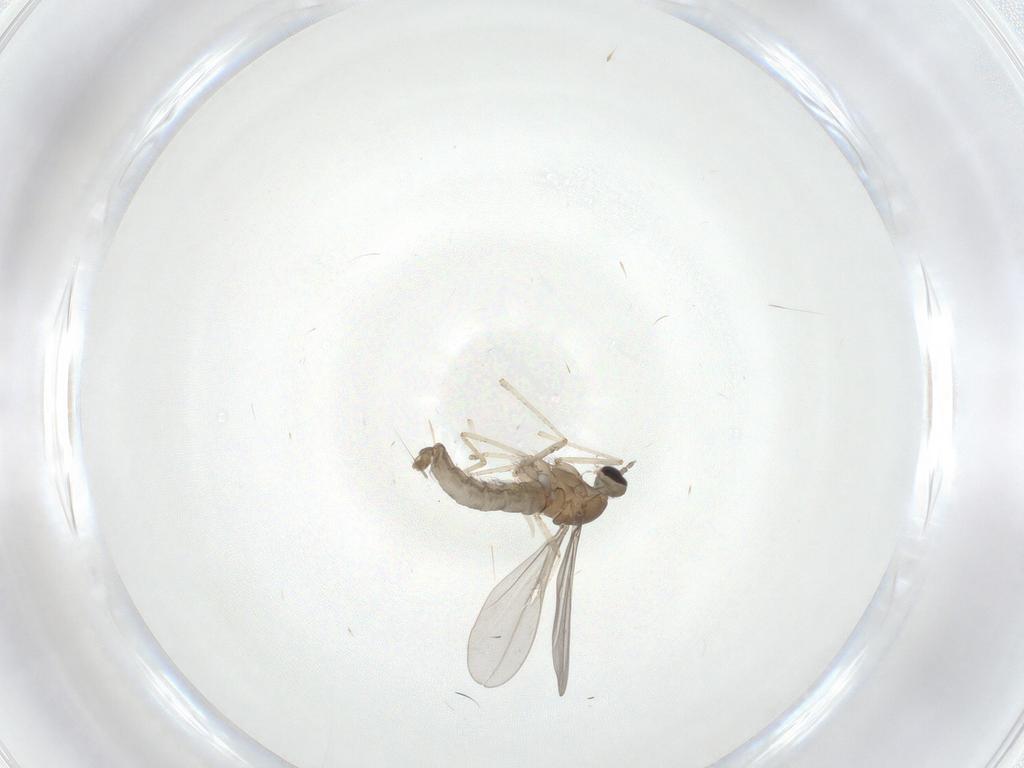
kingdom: Animalia
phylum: Arthropoda
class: Insecta
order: Diptera
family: Cecidomyiidae
